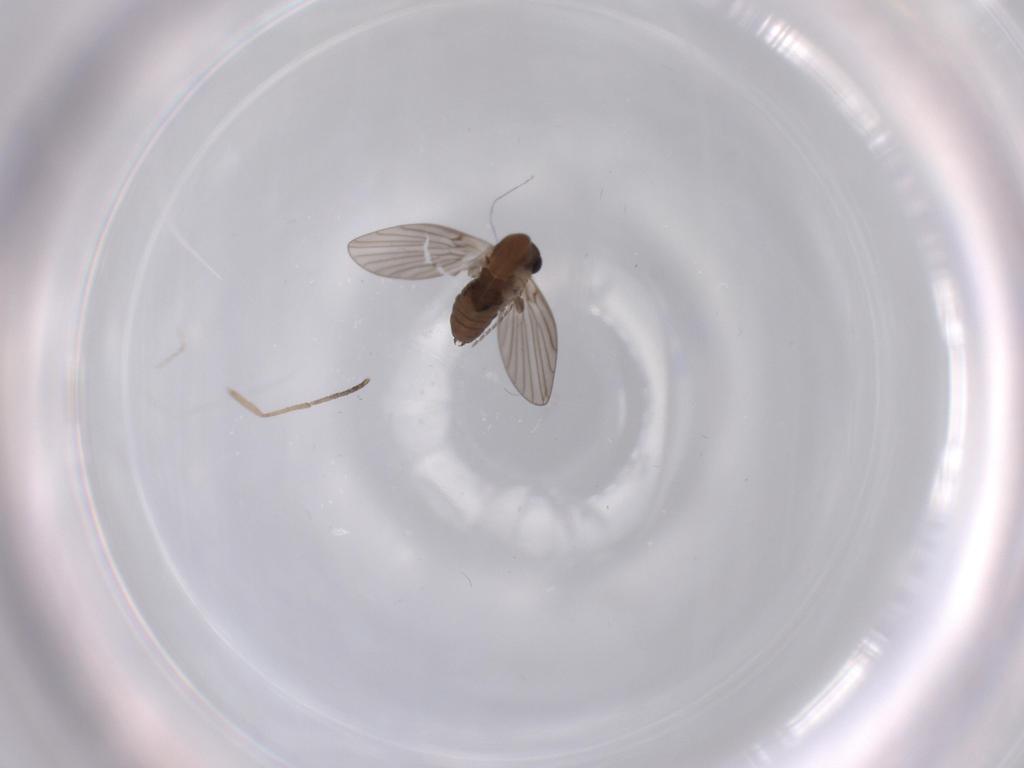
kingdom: Animalia
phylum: Arthropoda
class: Insecta
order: Diptera
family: Psychodidae
